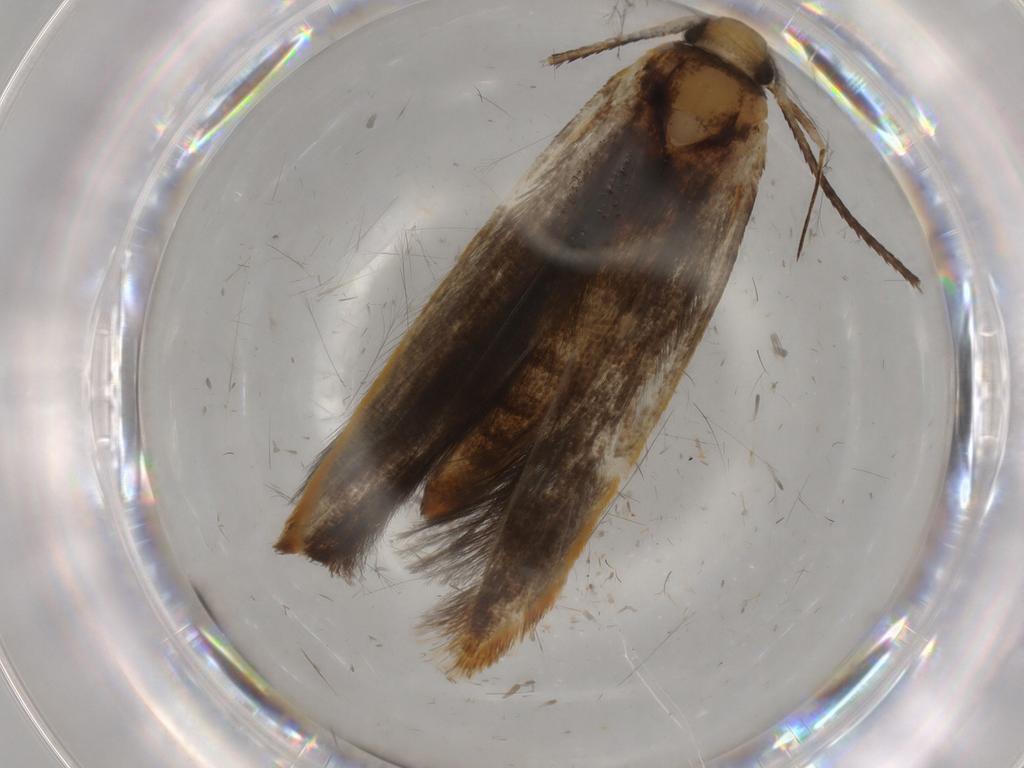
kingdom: Animalia
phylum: Arthropoda
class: Insecta
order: Lepidoptera
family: Pterolonchidae
